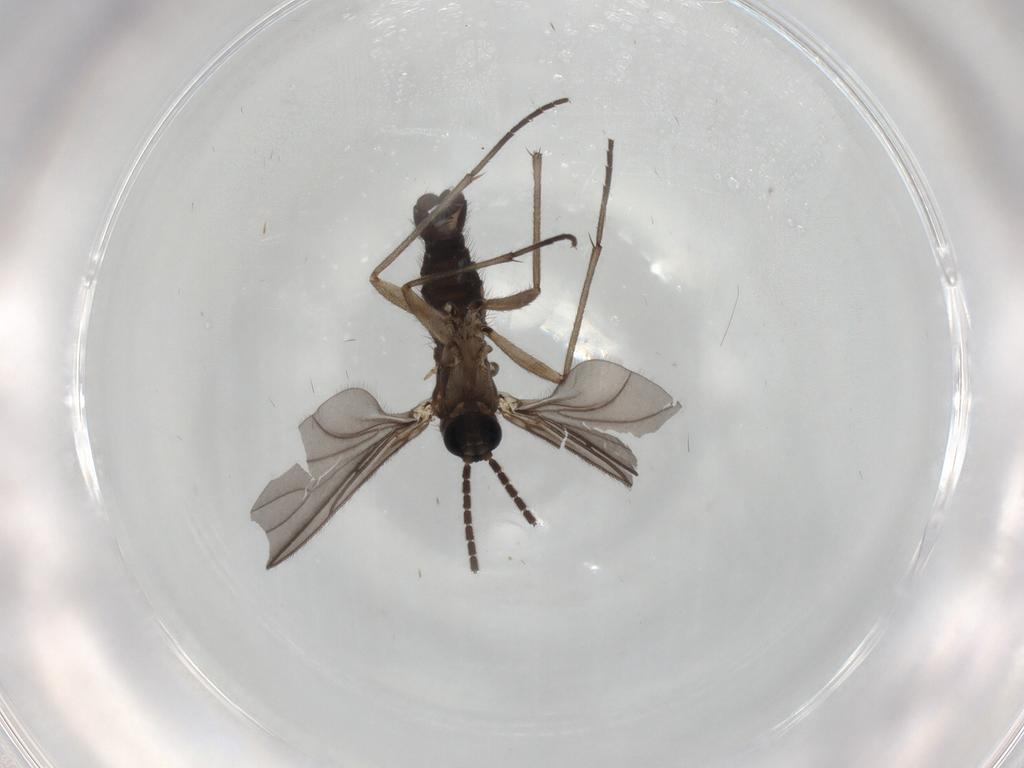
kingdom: Animalia
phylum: Arthropoda
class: Insecta
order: Diptera
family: Sciaridae
